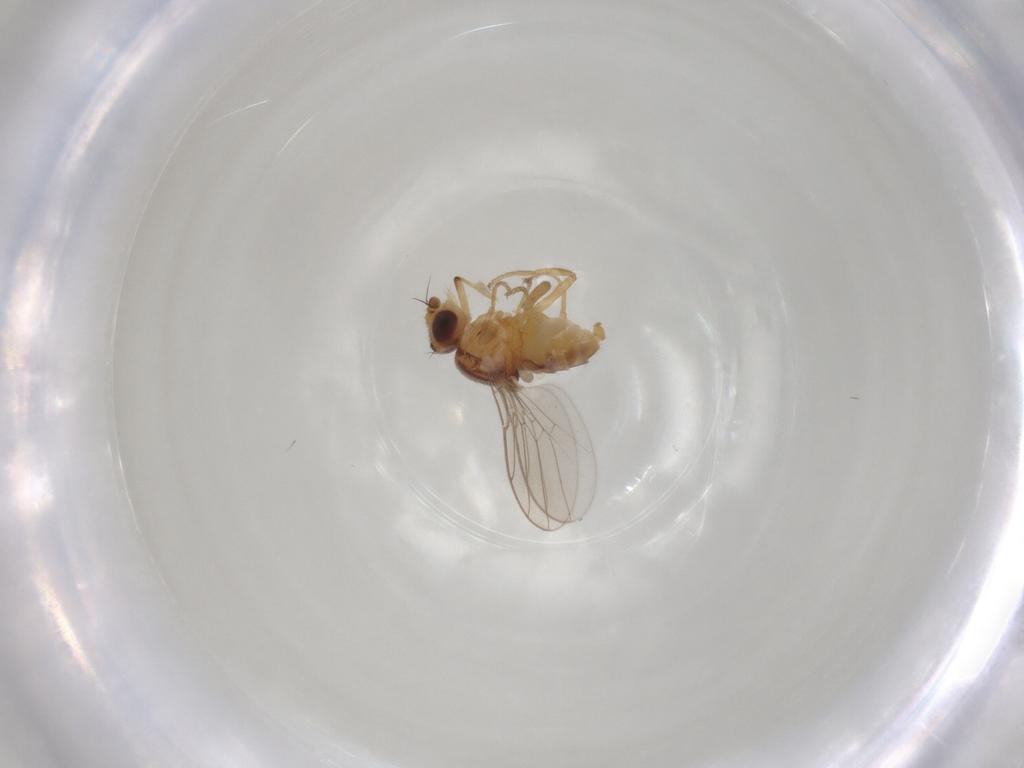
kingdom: Animalia
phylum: Arthropoda
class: Insecta
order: Diptera
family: Chloropidae
